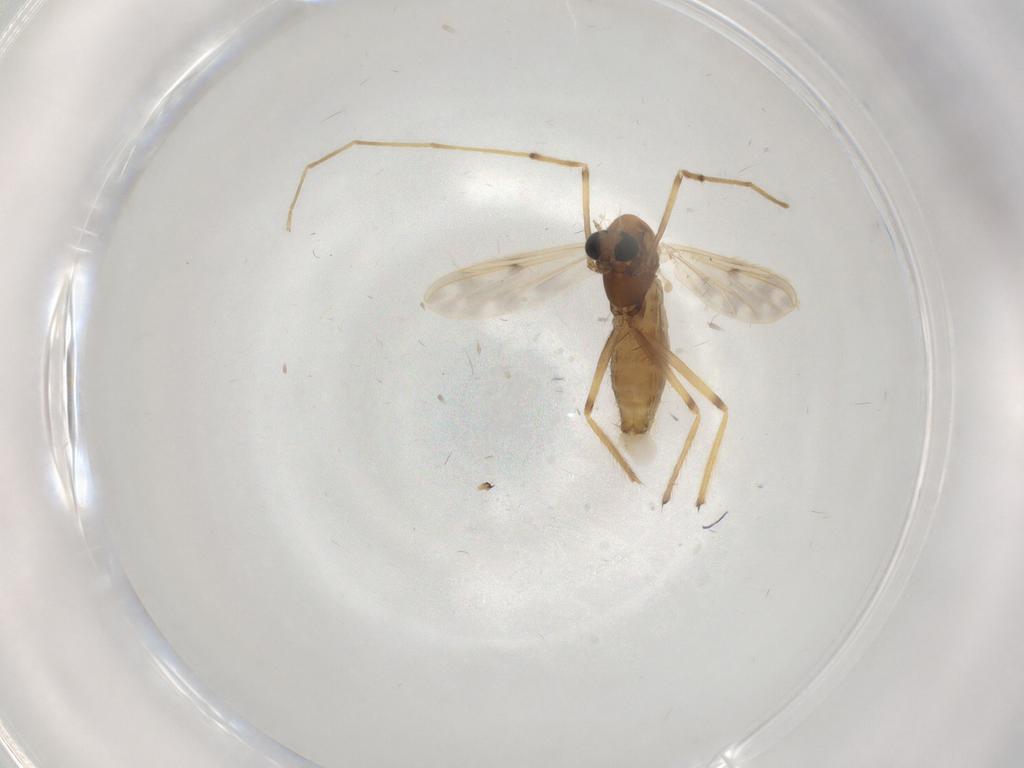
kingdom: Animalia
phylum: Arthropoda
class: Insecta
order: Diptera
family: Chironomidae
